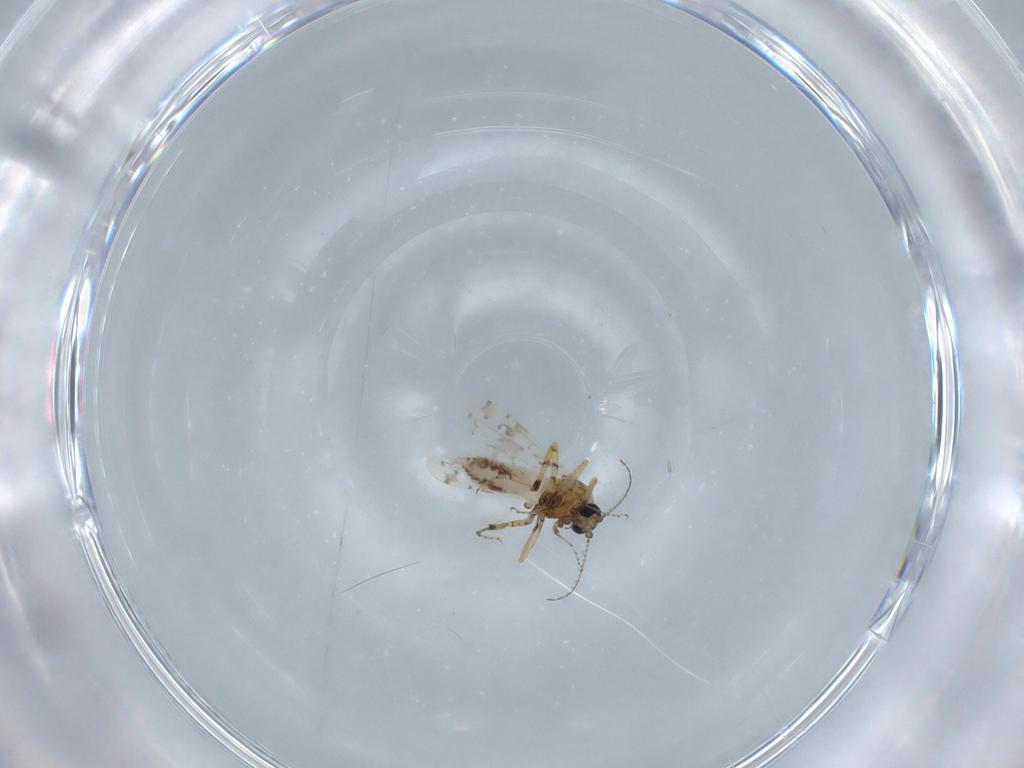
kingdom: Animalia
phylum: Arthropoda
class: Insecta
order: Diptera
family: Ceratopogonidae
